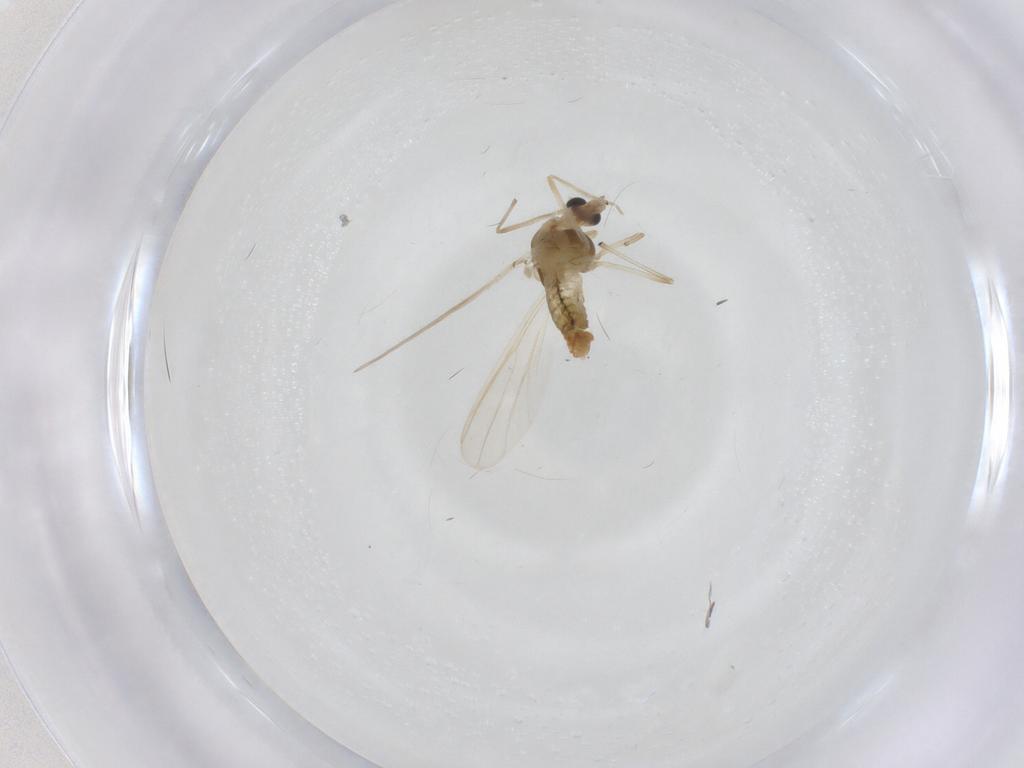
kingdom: Animalia
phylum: Arthropoda
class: Insecta
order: Diptera
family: Chironomidae
